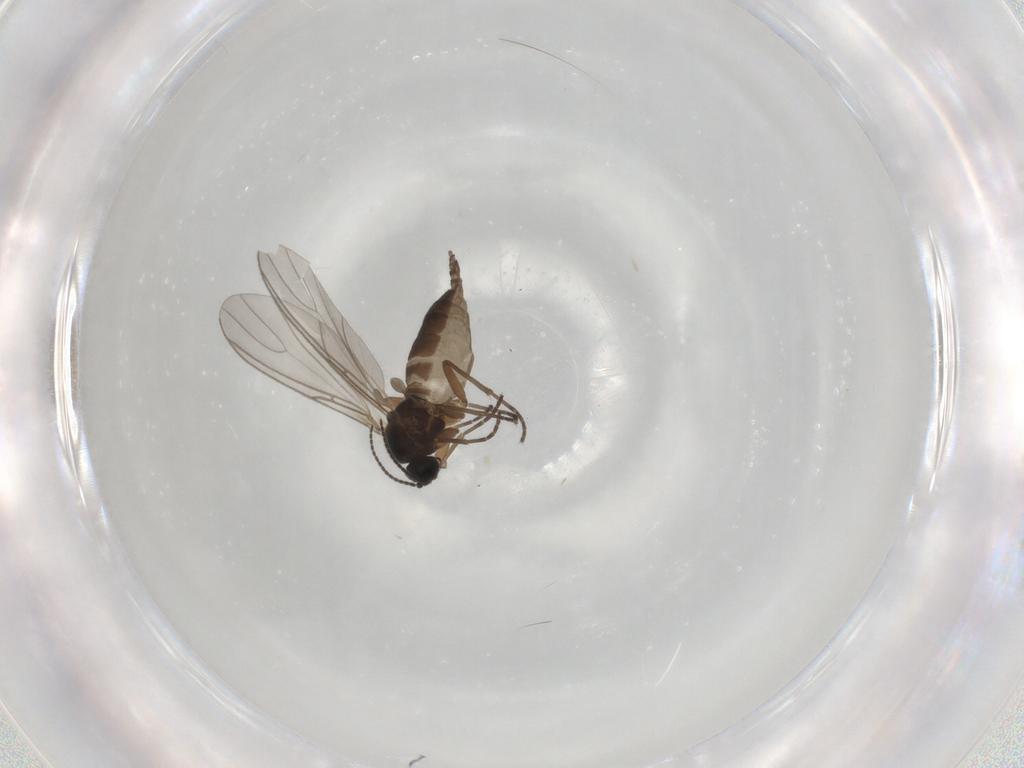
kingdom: Animalia
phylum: Arthropoda
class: Insecta
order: Diptera
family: Sciaridae
